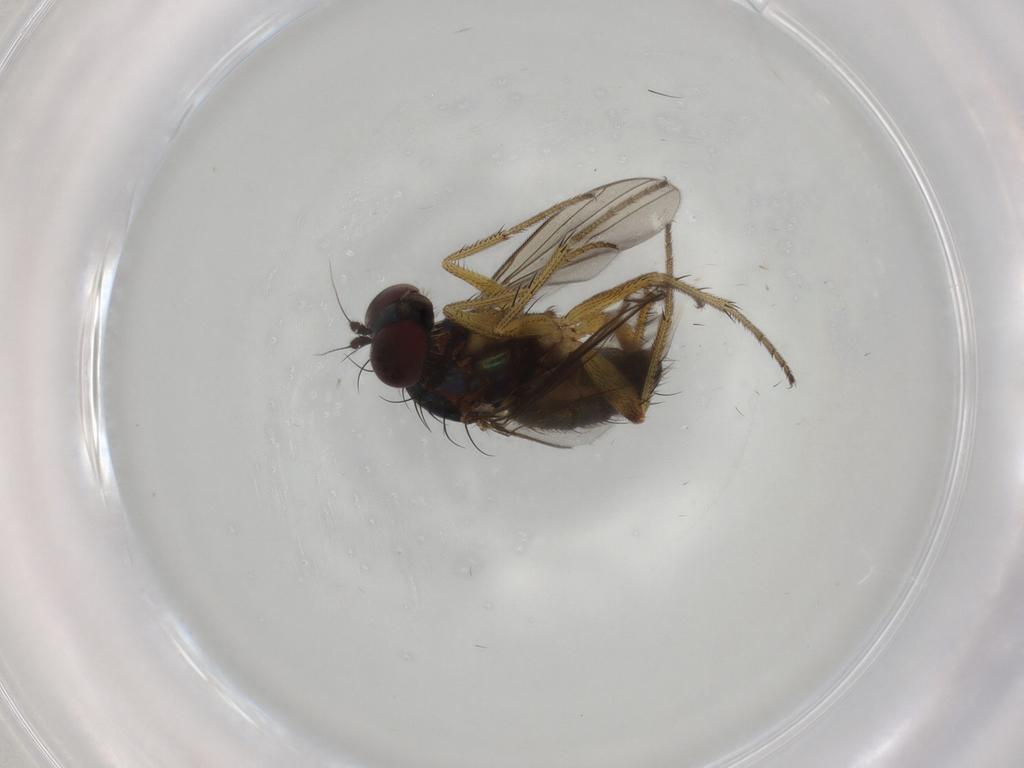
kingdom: Animalia
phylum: Arthropoda
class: Insecta
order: Diptera
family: Dolichopodidae
